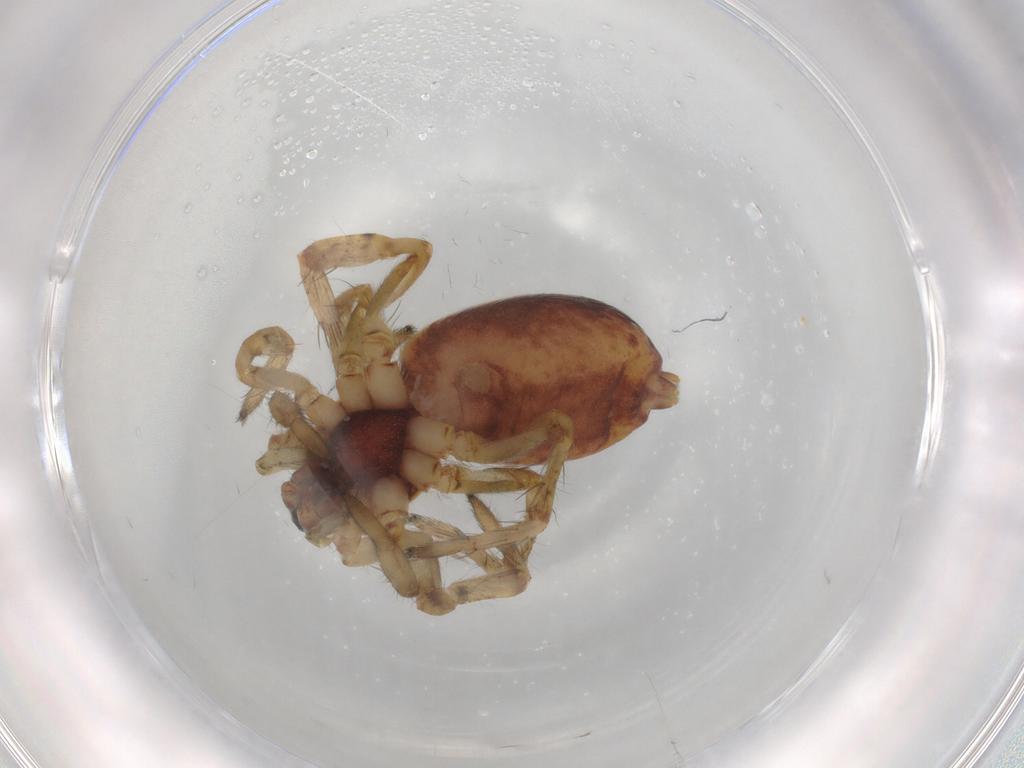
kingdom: Animalia
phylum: Arthropoda
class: Arachnida
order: Araneae
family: Anyphaenidae
